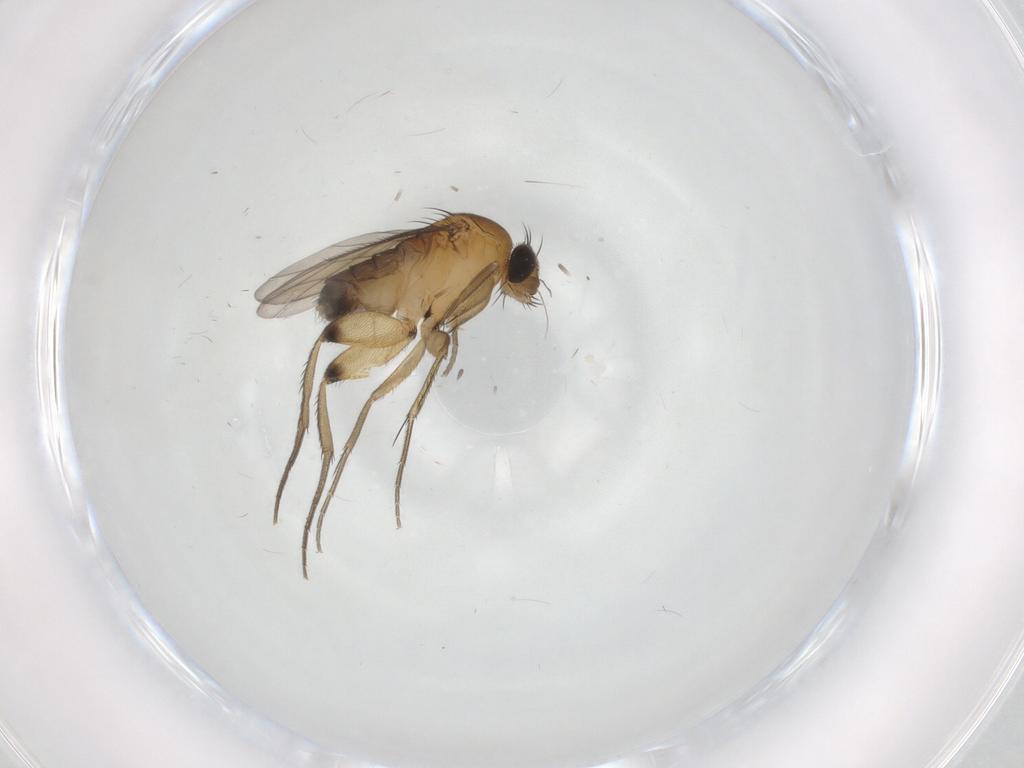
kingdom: Animalia
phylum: Arthropoda
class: Insecta
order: Diptera
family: Phoridae
